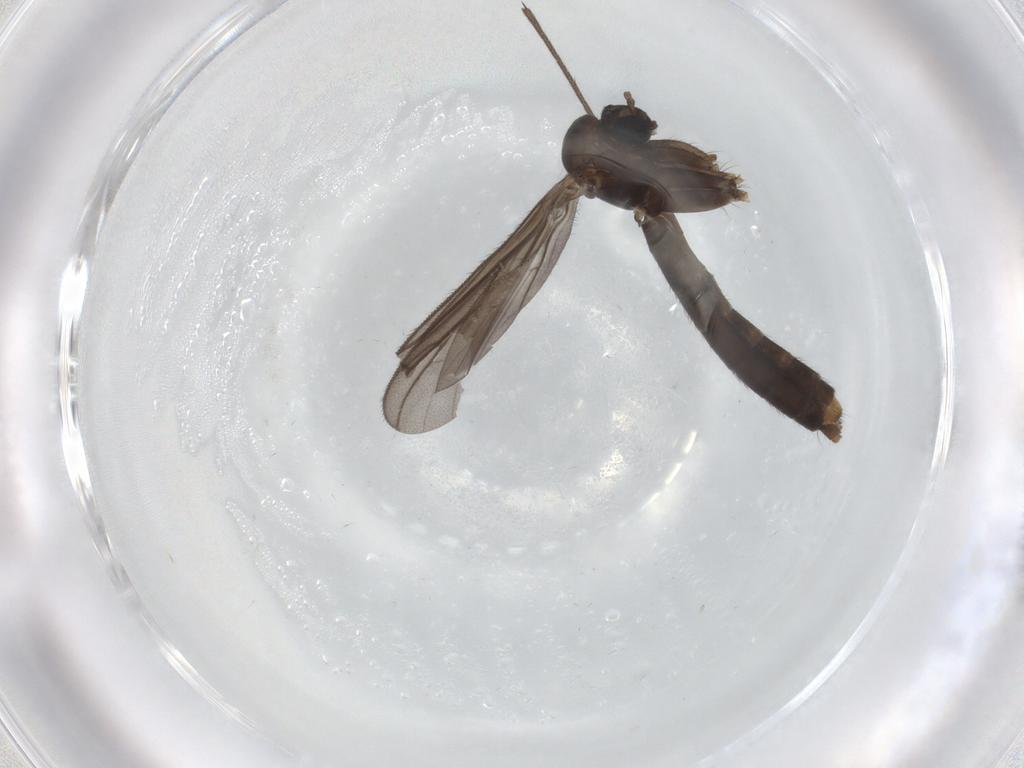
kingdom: Animalia
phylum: Arthropoda
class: Insecta
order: Diptera
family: Keroplatidae
